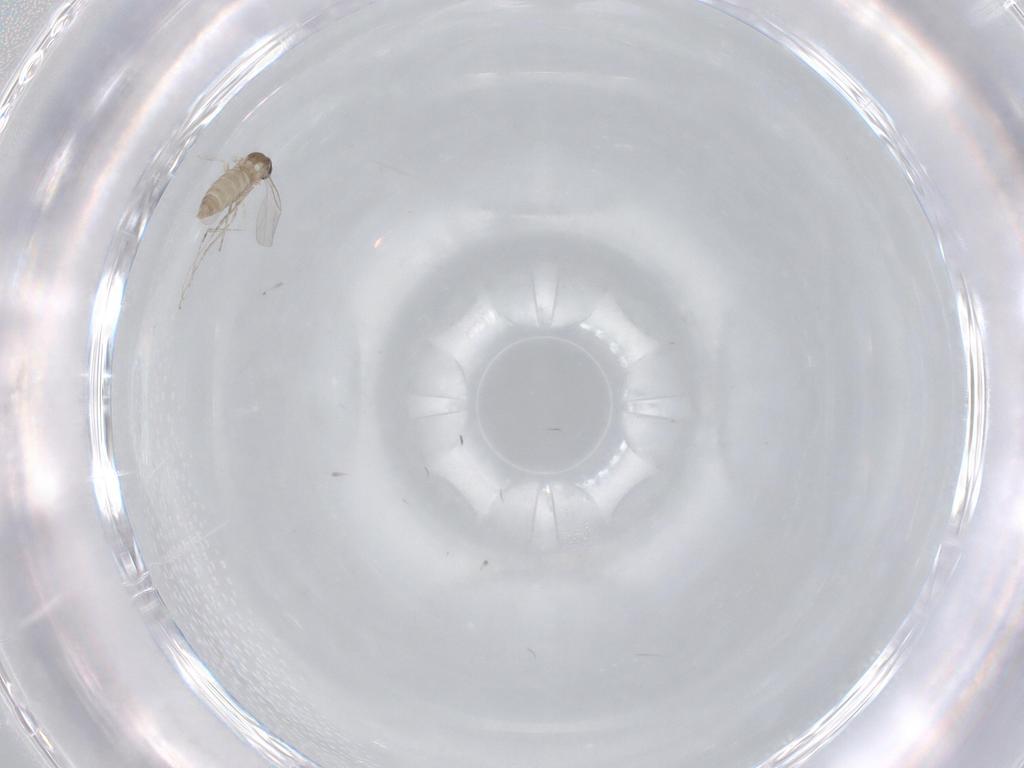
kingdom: Animalia
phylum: Arthropoda
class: Insecta
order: Diptera
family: Cecidomyiidae
